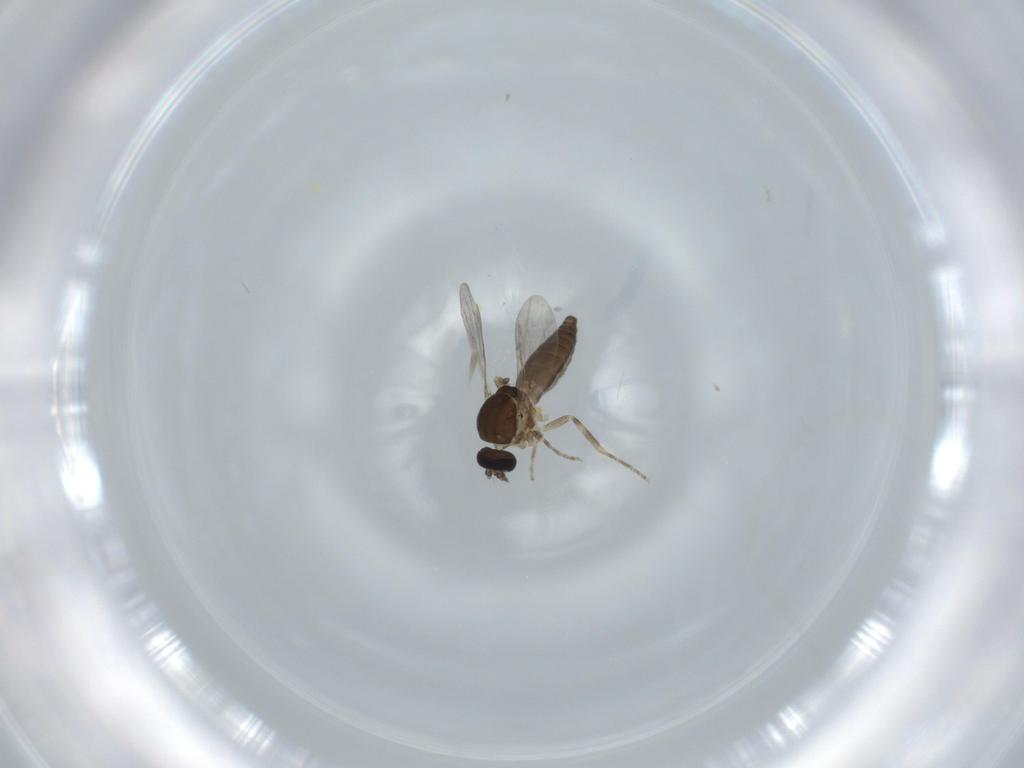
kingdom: Animalia
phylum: Arthropoda
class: Insecta
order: Diptera
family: Ceratopogonidae
